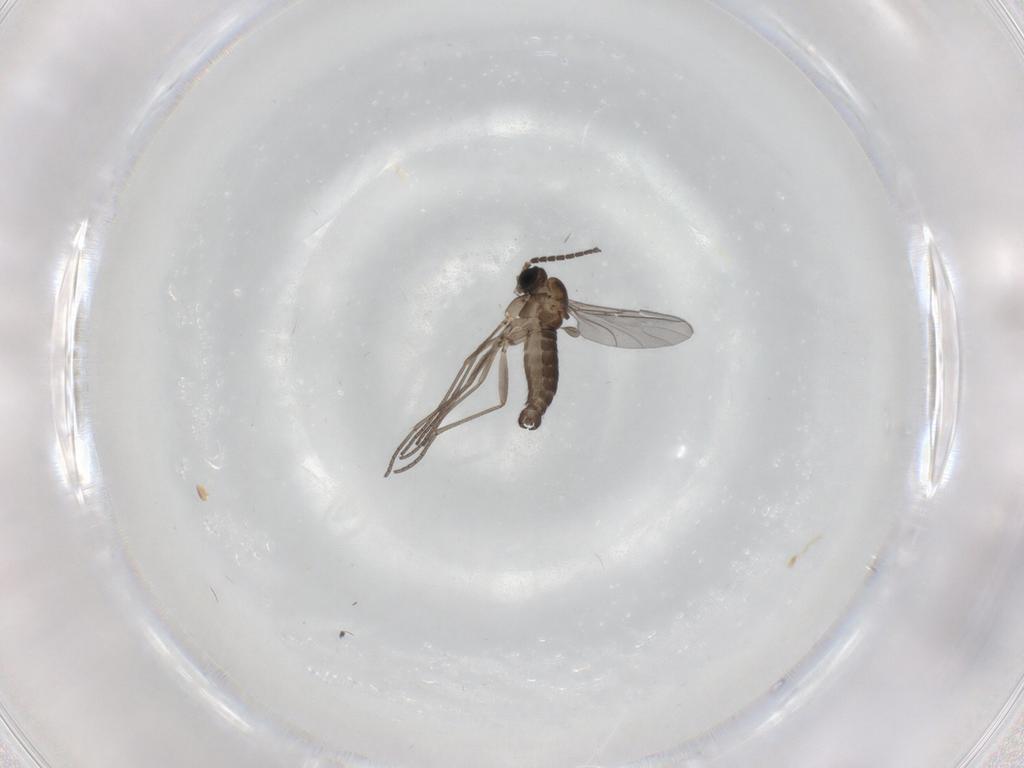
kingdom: Animalia
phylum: Arthropoda
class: Insecta
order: Diptera
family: Sciaridae
